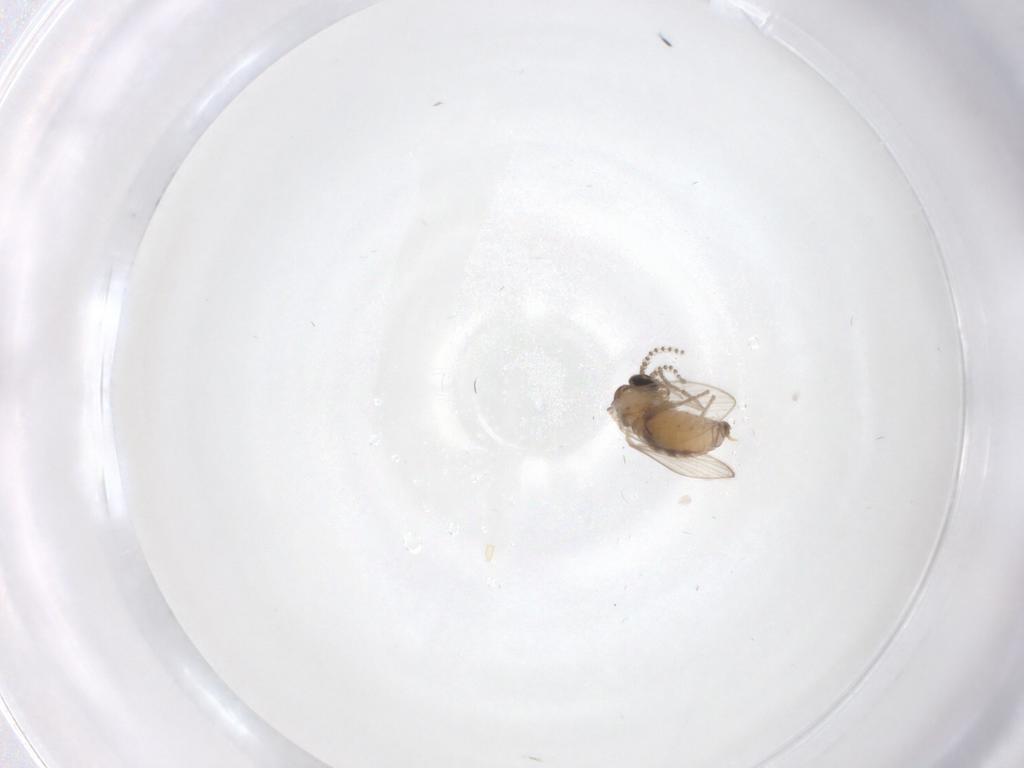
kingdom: Animalia
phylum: Arthropoda
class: Insecta
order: Diptera
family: Psychodidae
